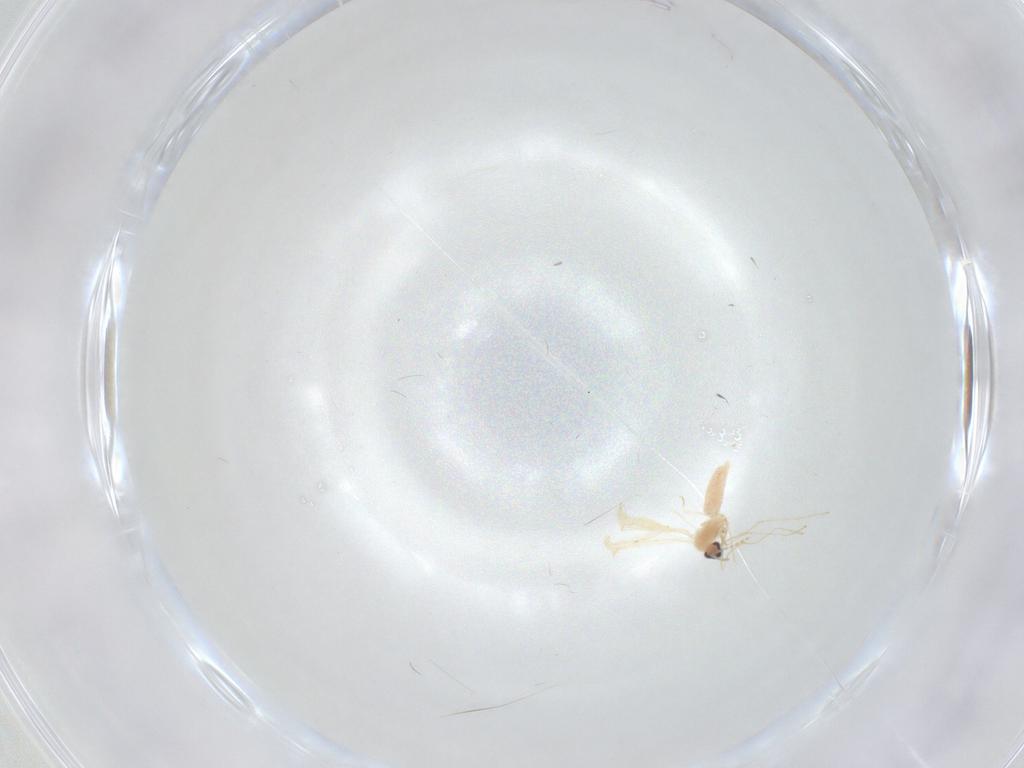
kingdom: Animalia
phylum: Arthropoda
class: Insecta
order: Diptera
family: Cecidomyiidae
